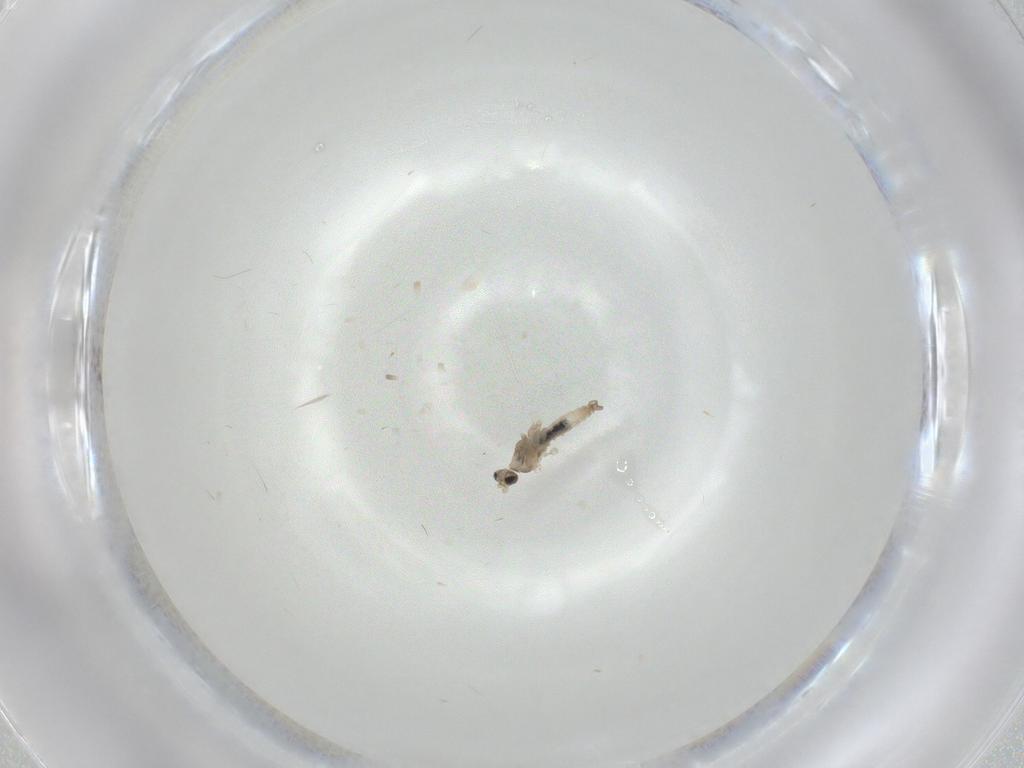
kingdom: Animalia
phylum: Arthropoda
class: Insecta
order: Diptera
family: Cecidomyiidae
